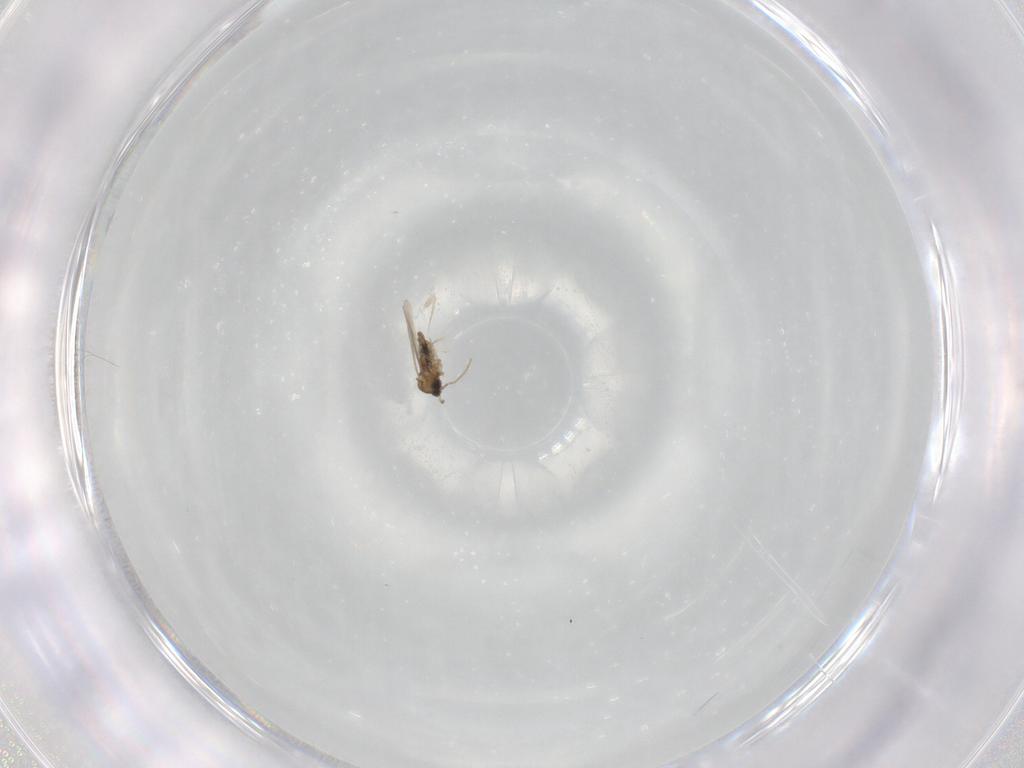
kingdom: Animalia
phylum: Arthropoda
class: Insecta
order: Diptera
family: Cecidomyiidae
